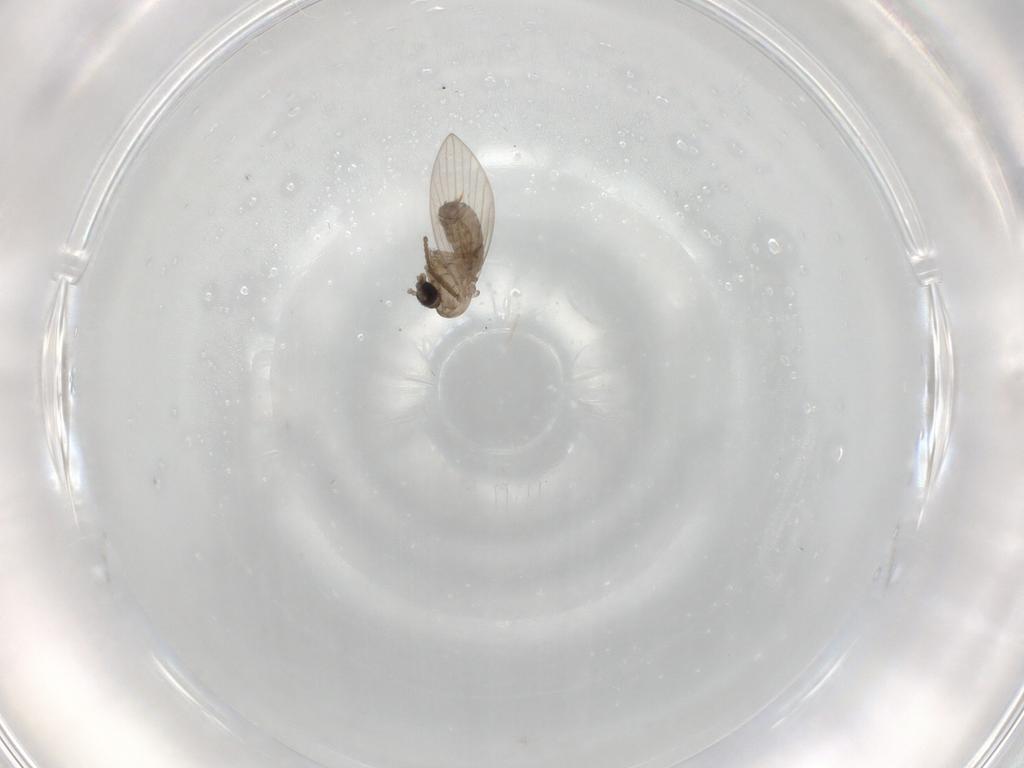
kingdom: Animalia
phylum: Arthropoda
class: Insecta
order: Diptera
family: Psychodidae
